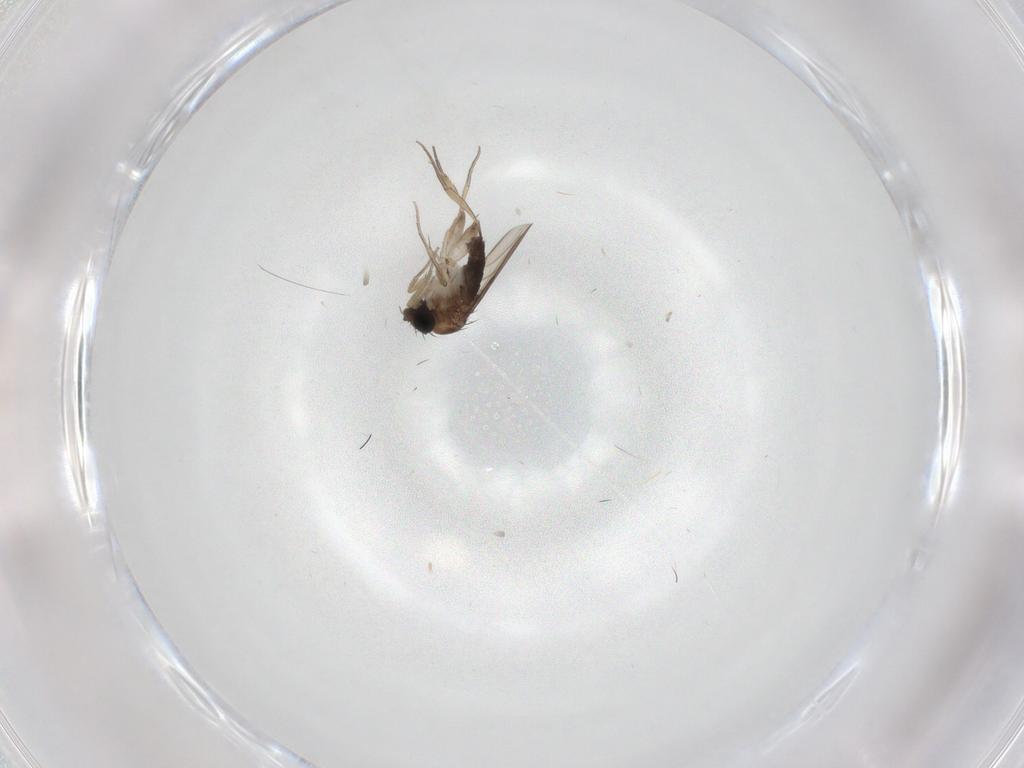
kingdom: Animalia
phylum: Arthropoda
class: Insecta
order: Diptera
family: Phoridae
